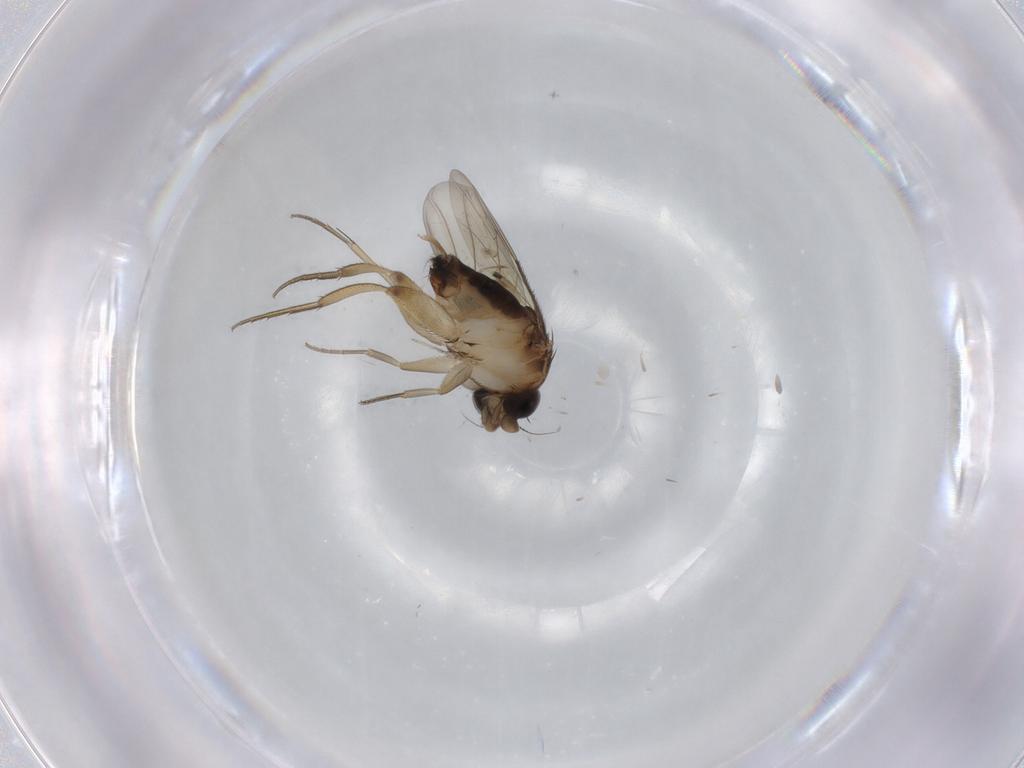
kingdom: Animalia
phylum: Arthropoda
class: Insecta
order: Diptera
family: Phoridae
